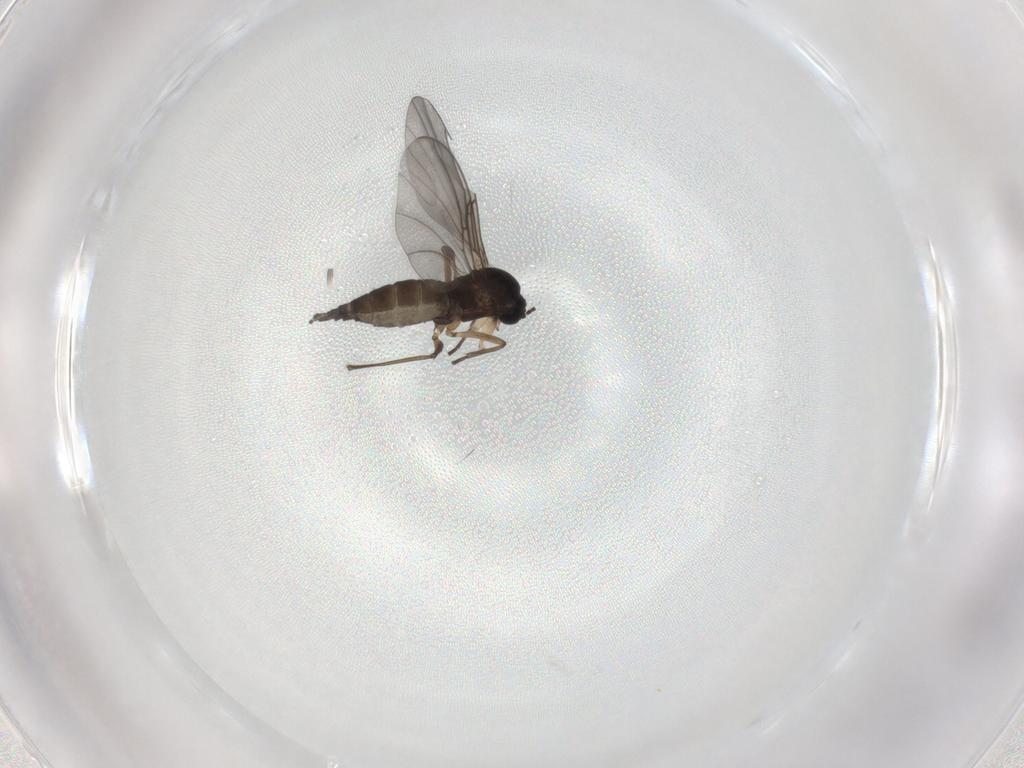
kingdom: Animalia
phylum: Arthropoda
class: Insecta
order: Diptera
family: Sciaridae
